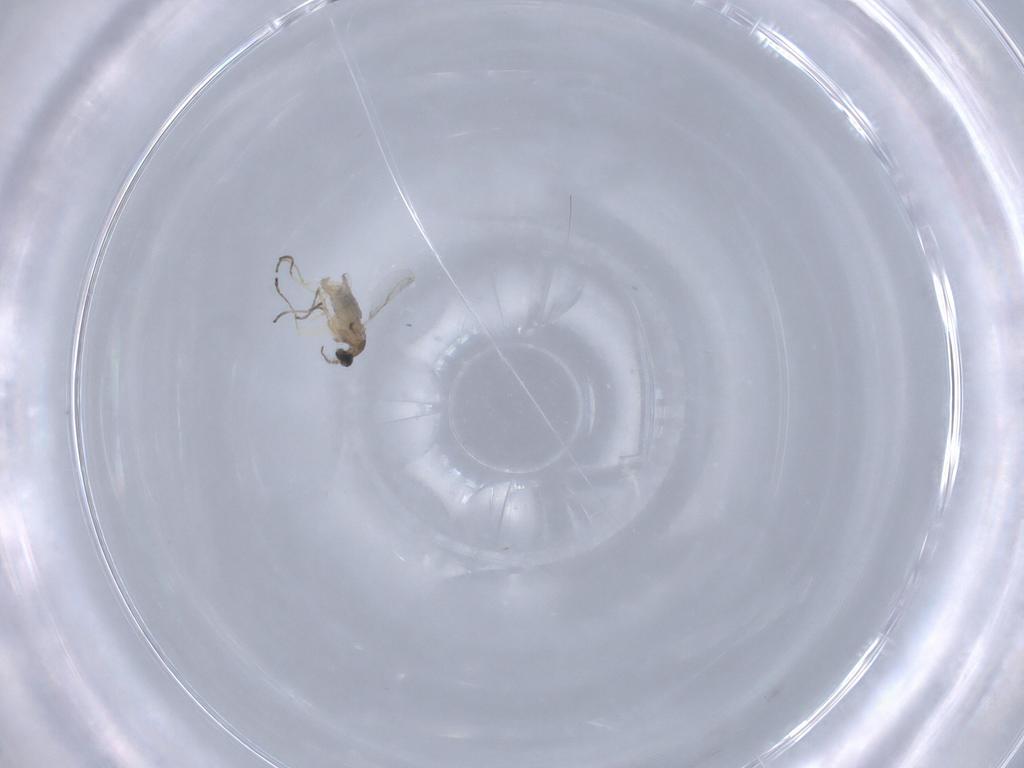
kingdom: Animalia
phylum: Arthropoda
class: Insecta
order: Diptera
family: Cecidomyiidae
